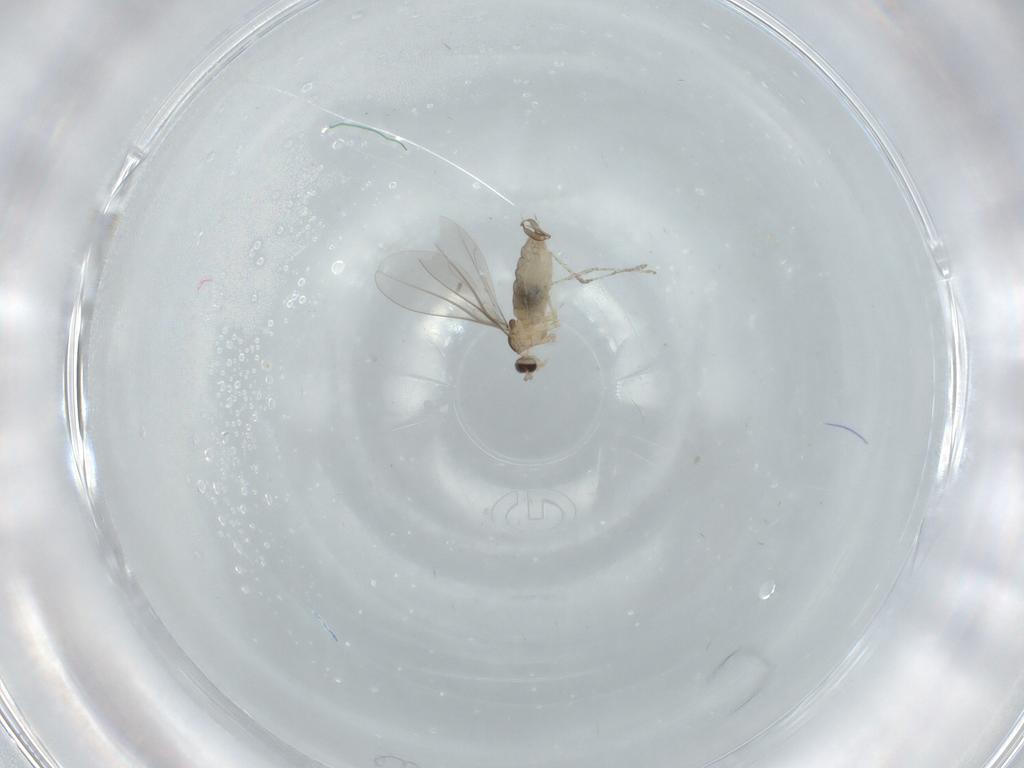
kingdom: Animalia
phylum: Arthropoda
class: Insecta
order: Diptera
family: Cecidomyiidae
